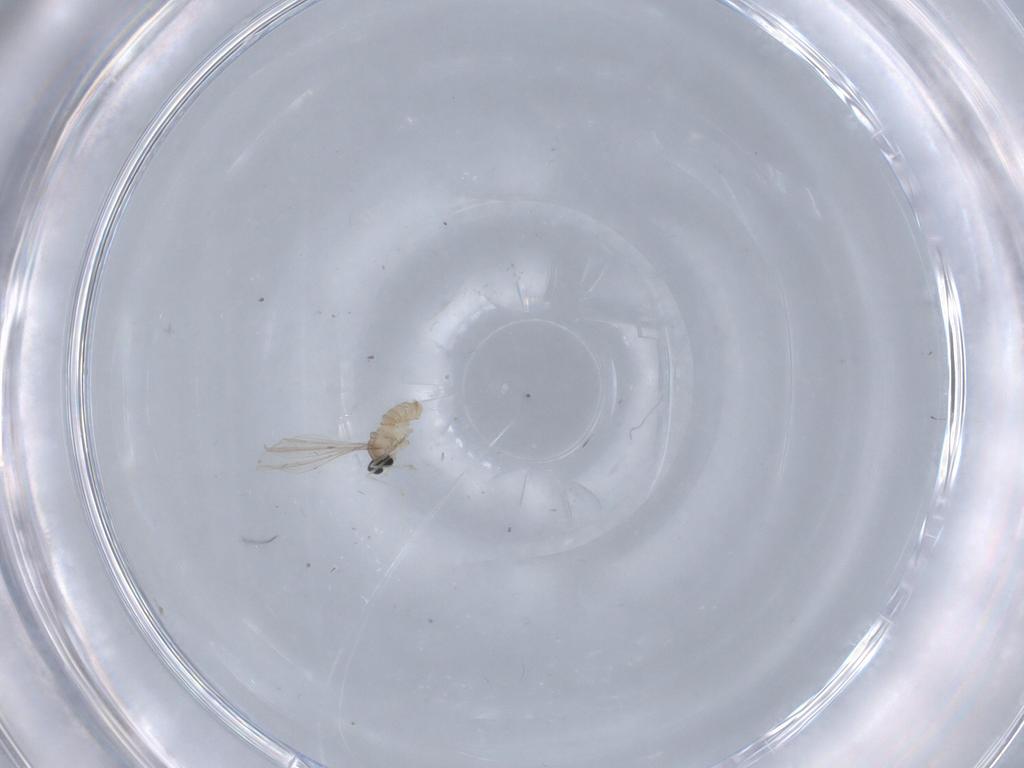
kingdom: Animalia
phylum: Arthropoda
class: Insecta
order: Diptera
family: Cecidomyiidae
